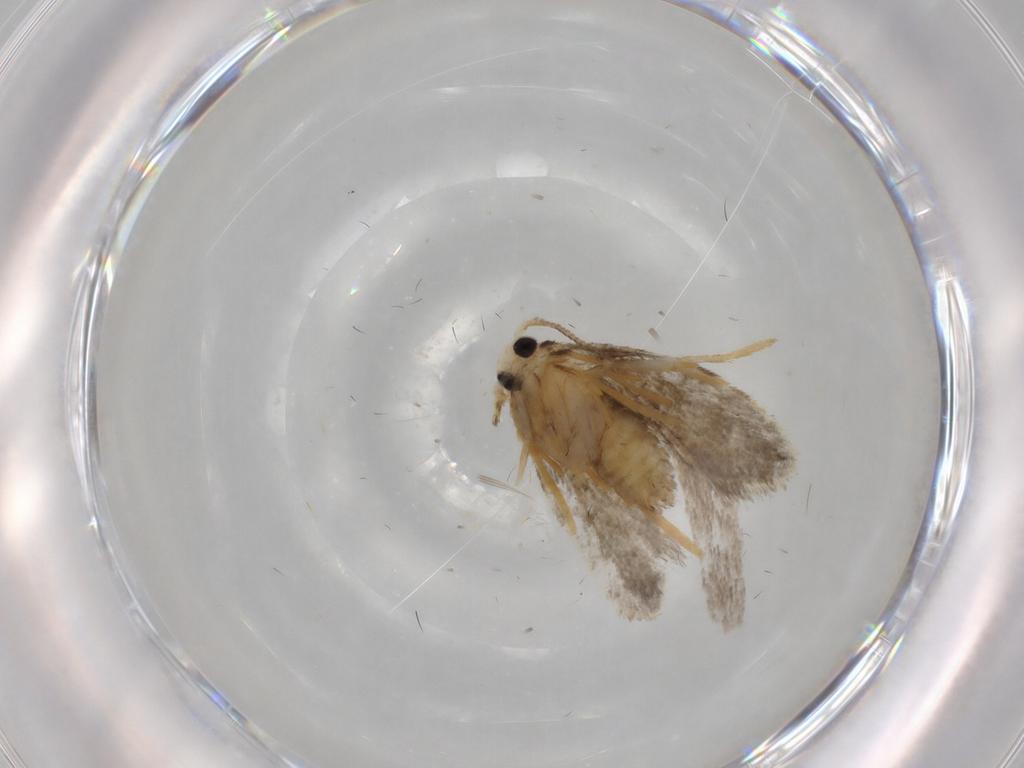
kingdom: Animalia
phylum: Arthropoda
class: Insecta
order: Lepidoptera
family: Psychidae
